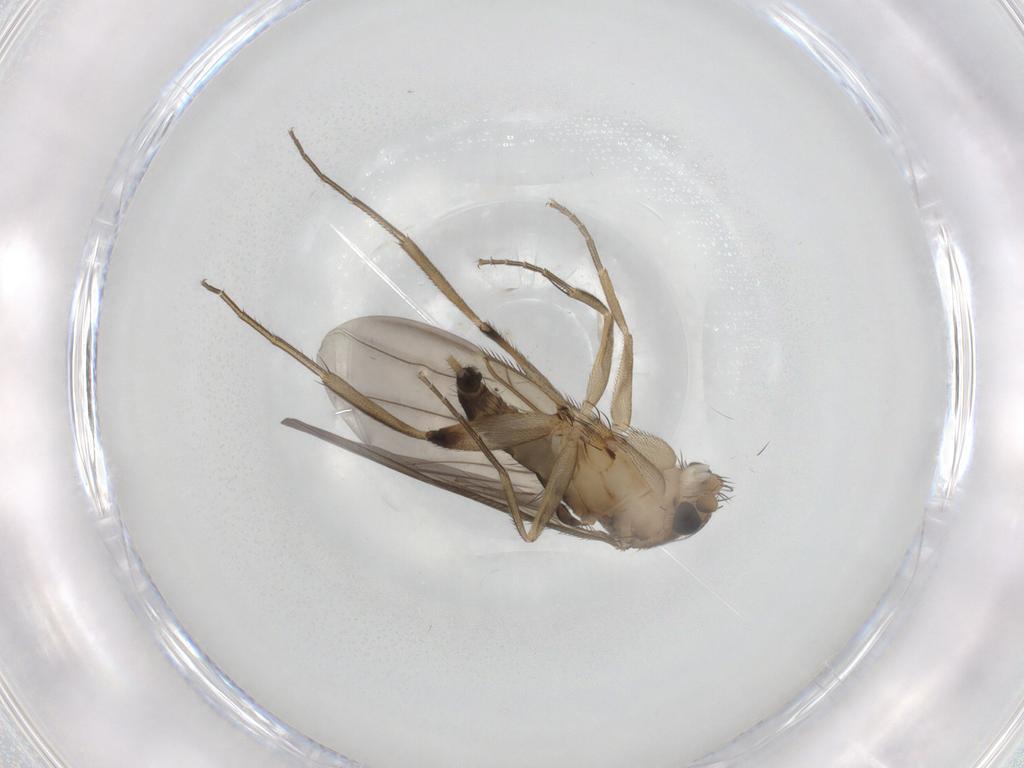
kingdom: Animalia
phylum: Arthropoda
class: Insecta
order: Diptera
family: Phoridae
